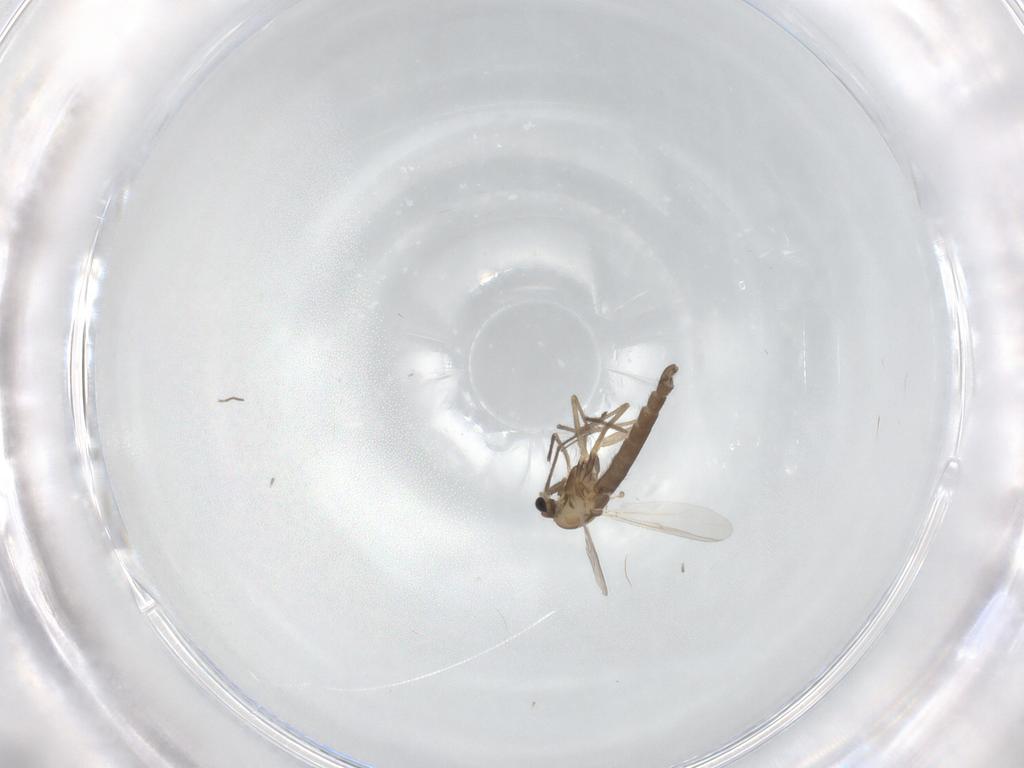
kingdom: Animalia
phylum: Arthropoda
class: Insecta
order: Diptera
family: Chironomidae
